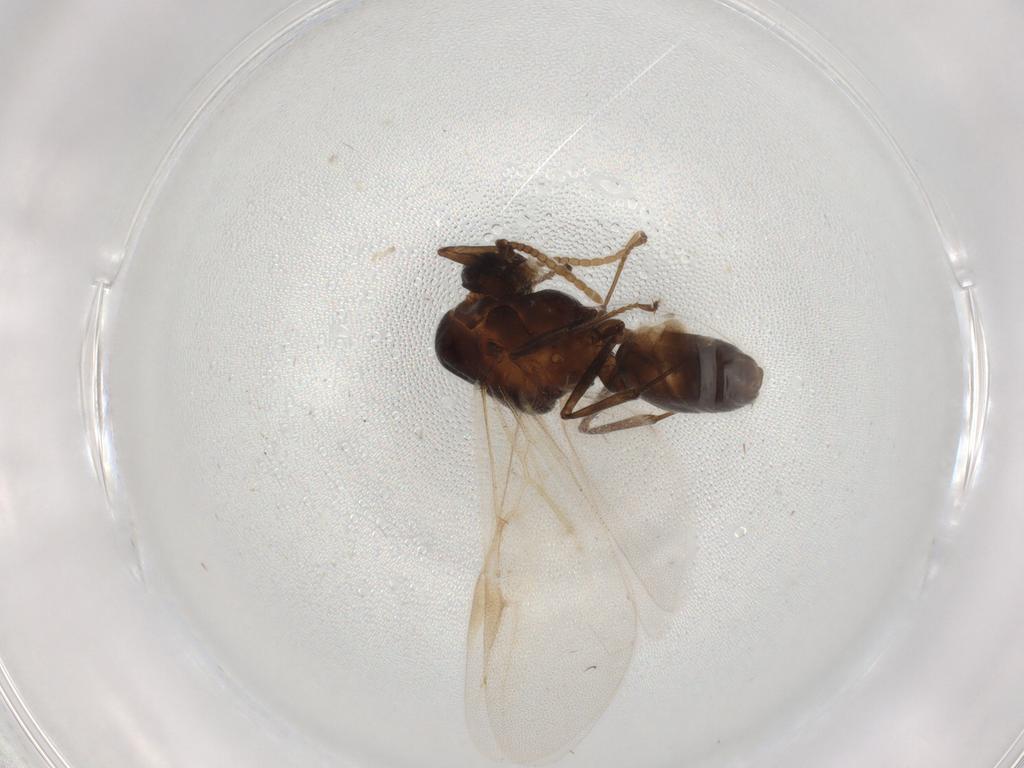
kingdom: Animalia
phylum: Arthropoda
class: Insecta
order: Hymenoptera
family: Formicidae
